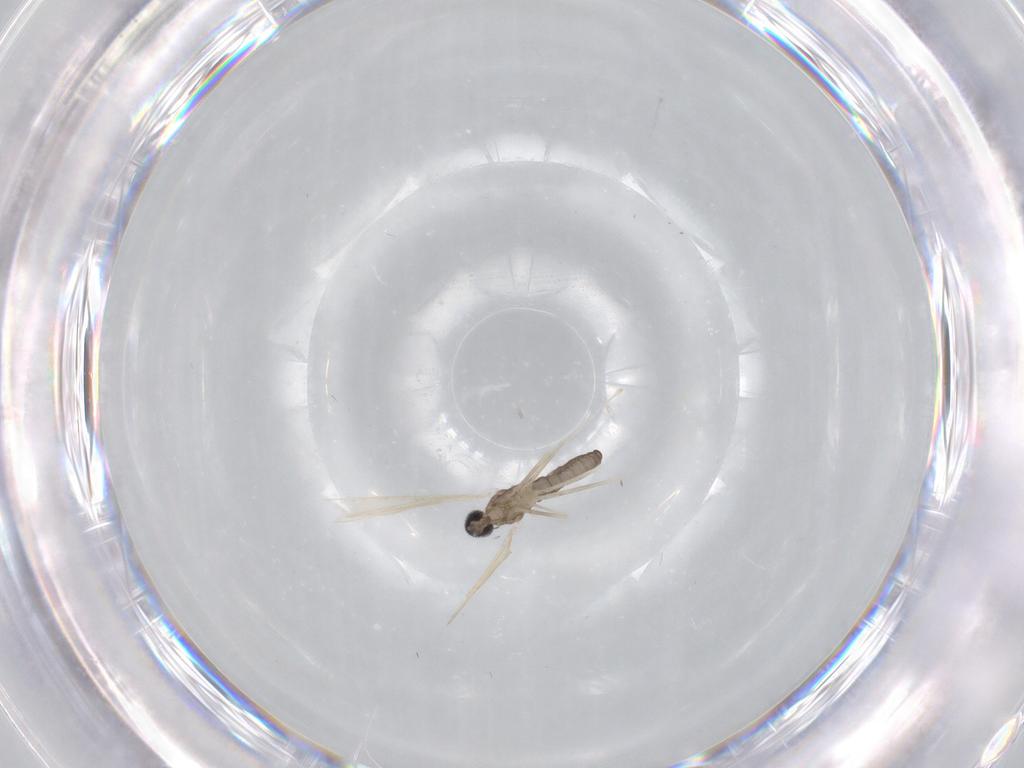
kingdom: Animalia
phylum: Arthropoda
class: Insecta
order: Diptera
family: Cecidomyiidae
